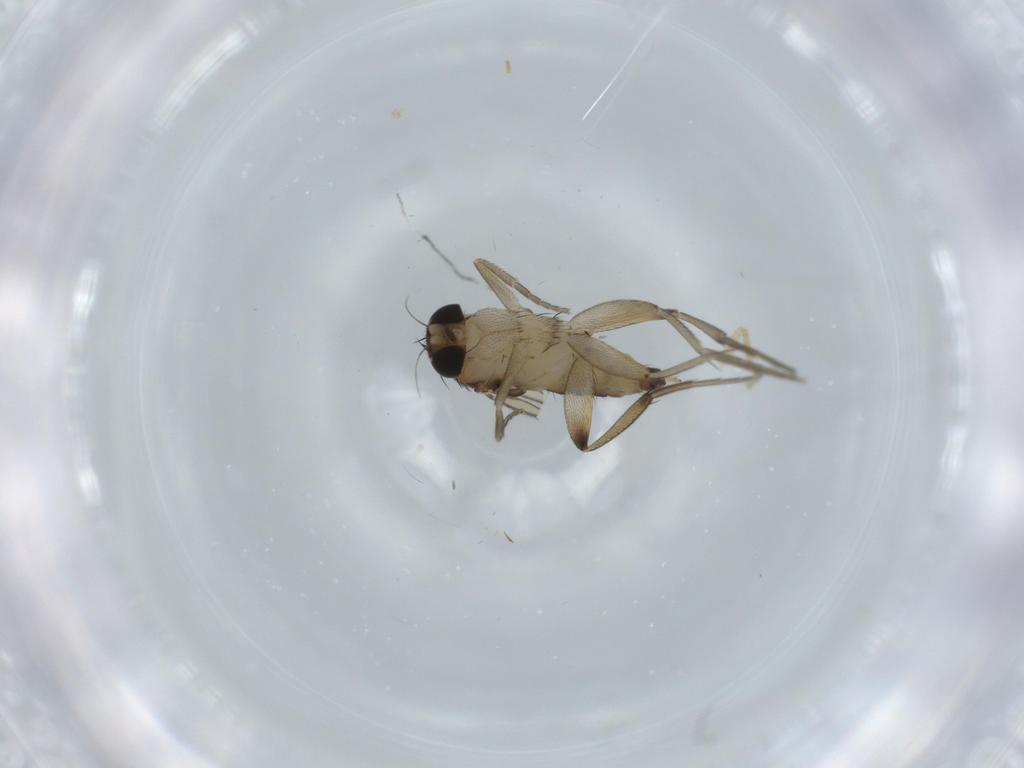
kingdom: Animalia
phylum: Arthropoda
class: Insecta
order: Diptera
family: Phoridae
